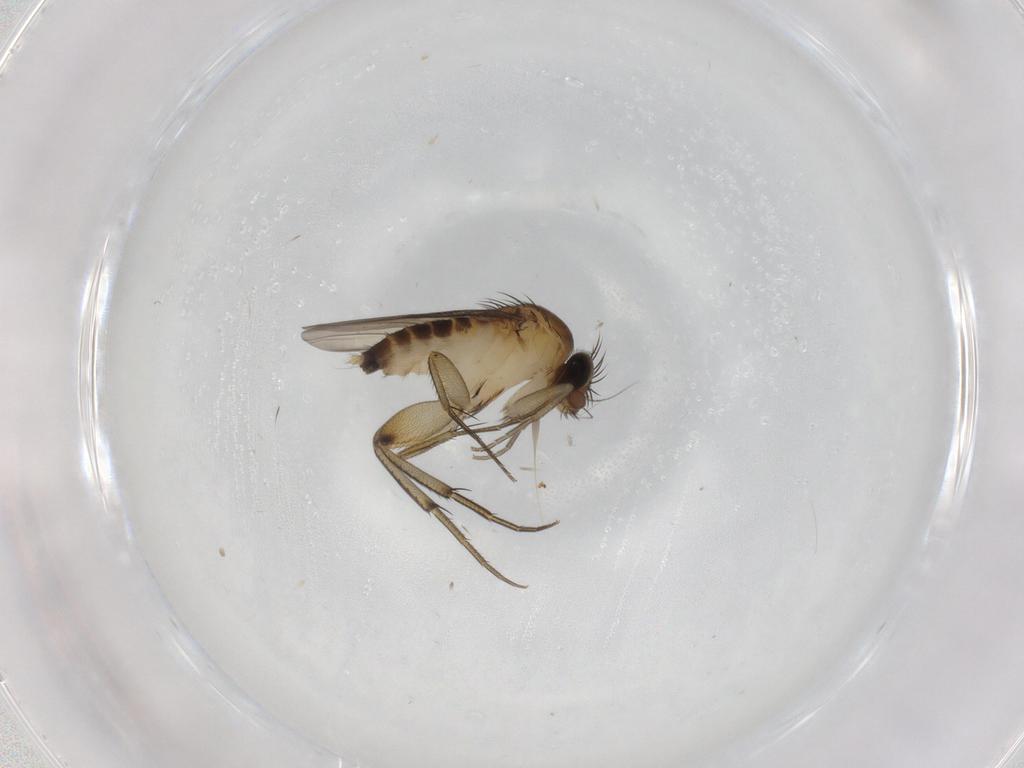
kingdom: Animalia
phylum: Arthropoda
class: Insecta
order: Diptera
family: Phoridae
